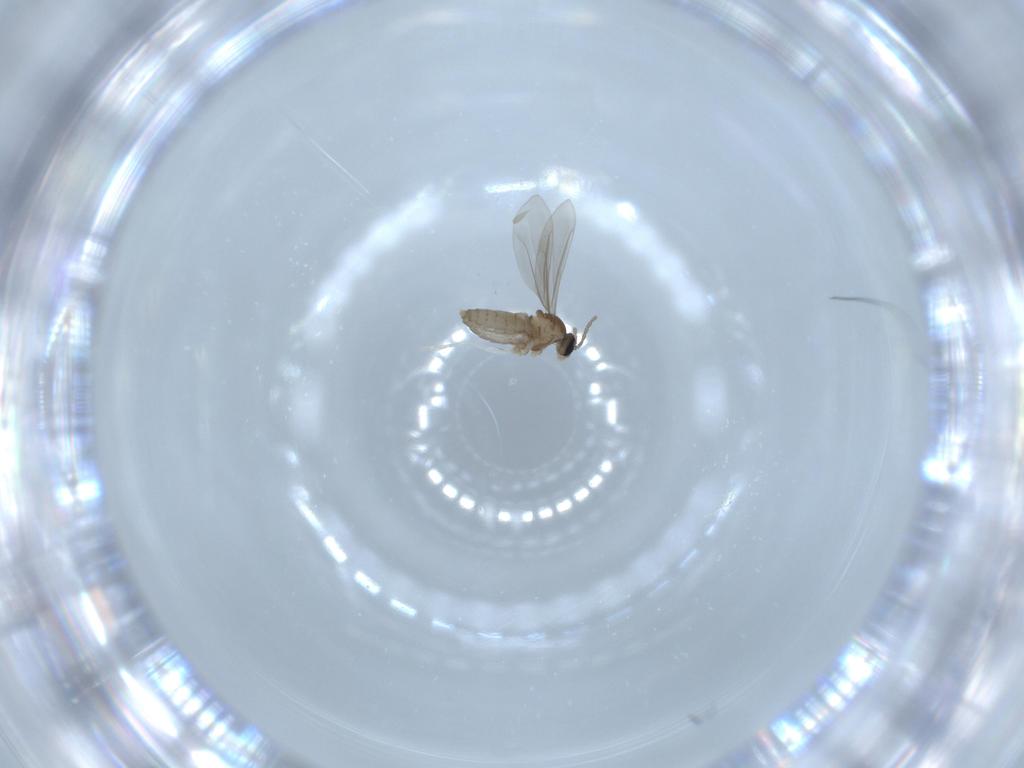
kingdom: Animalia
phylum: Arthropoda
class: Insecta
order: Diptera
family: Cecidomyiidae
